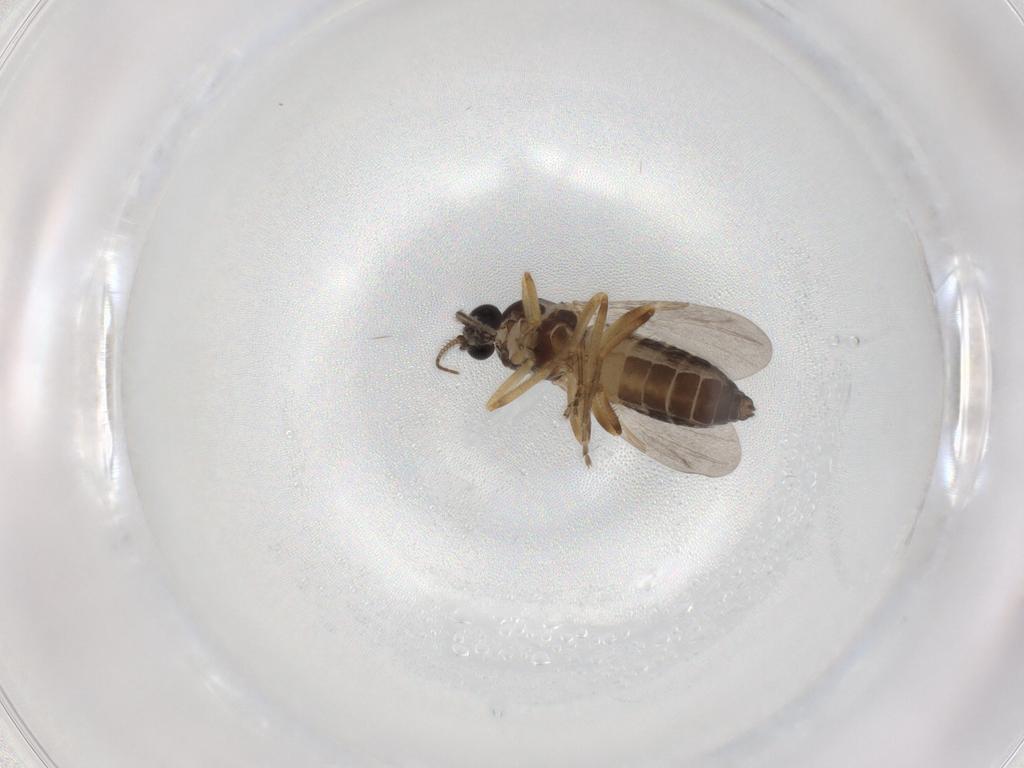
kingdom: Animalia
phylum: Arthropoda
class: Insecta
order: Diptera
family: Ceratopogonidae
